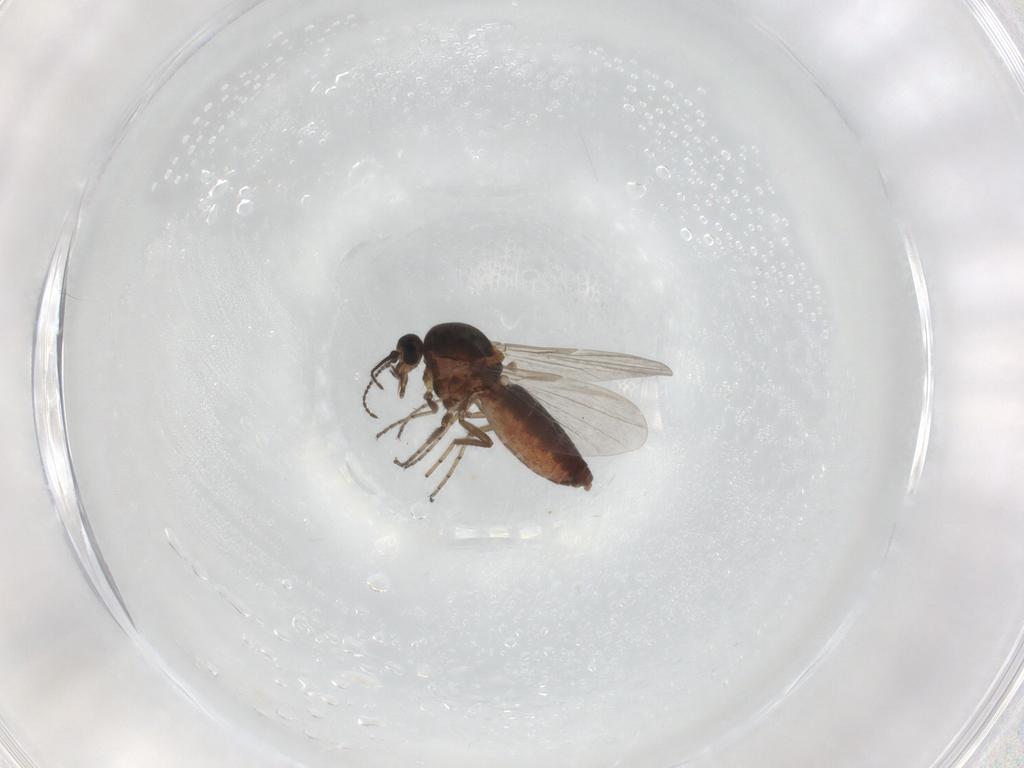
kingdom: Animalia
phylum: Arthropoda
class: Insecta
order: Diptera
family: Ceratopogonidae
